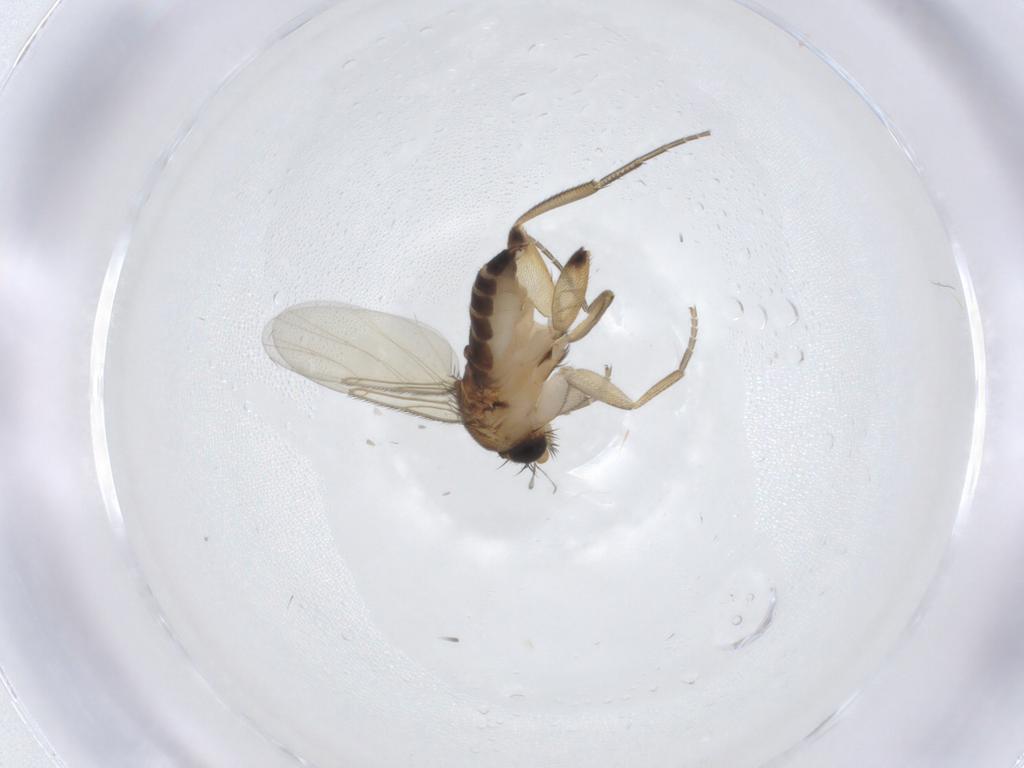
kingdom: Animalia
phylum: Arthropoda
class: Insecta
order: Diptera
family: Phoridae
